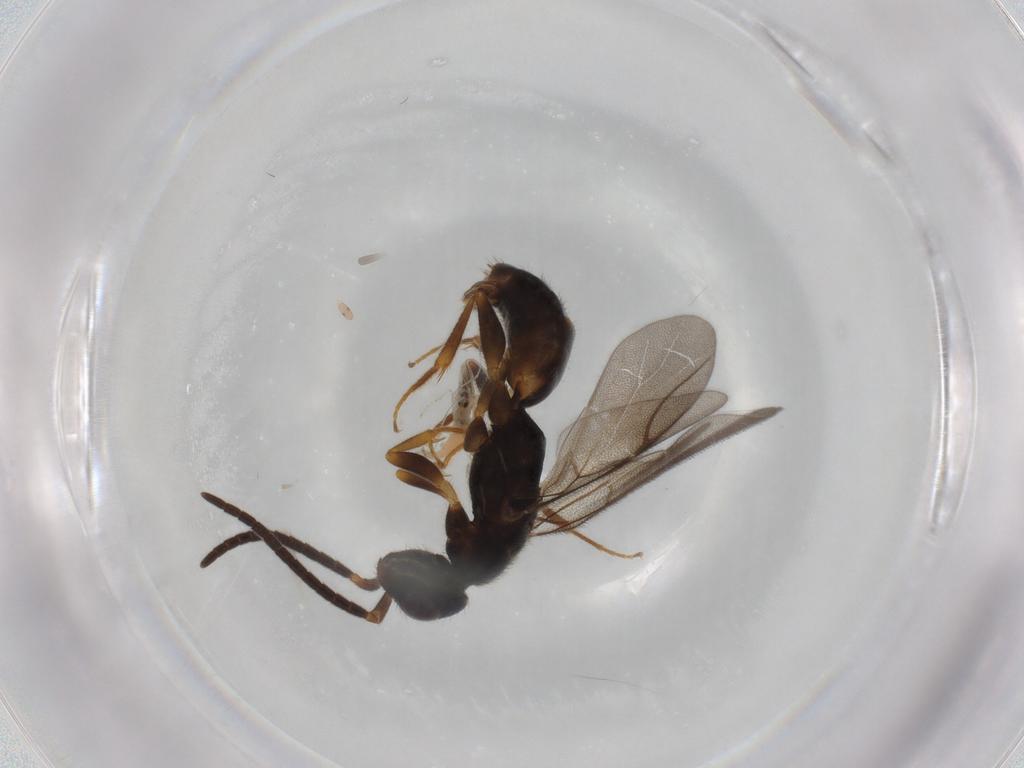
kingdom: Animalia
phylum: Arthropoda
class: Insecta
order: Hymenoptera
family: Bethylidae
